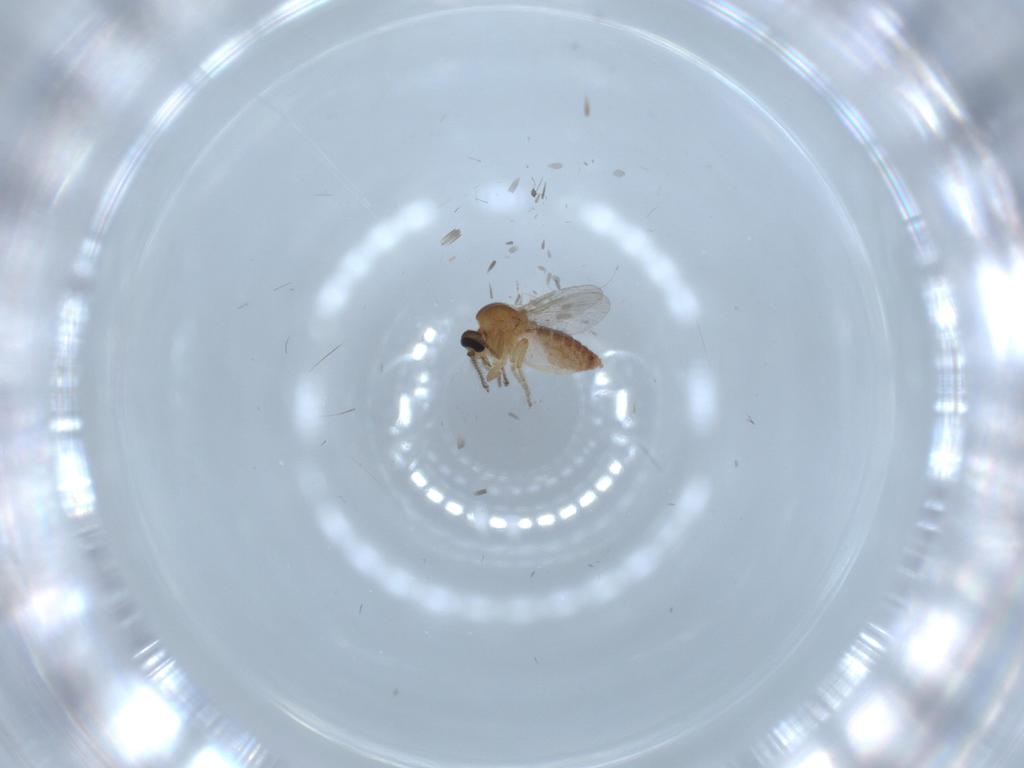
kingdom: Animalia
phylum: Arthropoda
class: Insecta
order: Diptera
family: Ceratopogonidae
